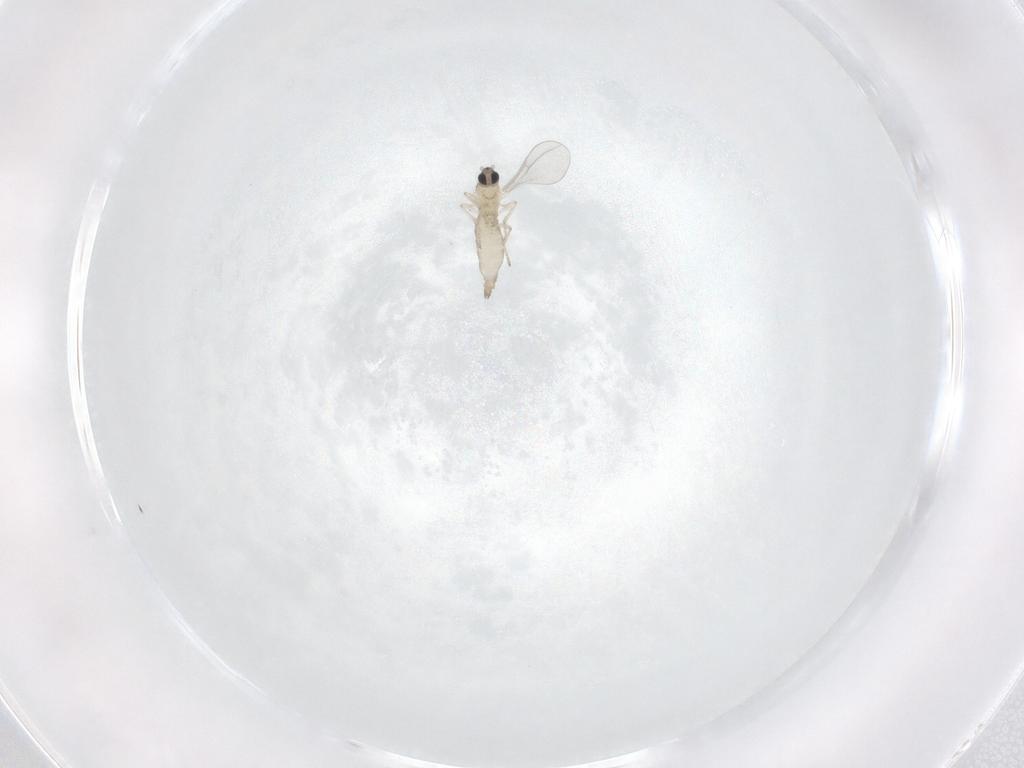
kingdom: Animalia
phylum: Arthropoda
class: Insecta
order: Diptera
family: Cecidomyiidae
